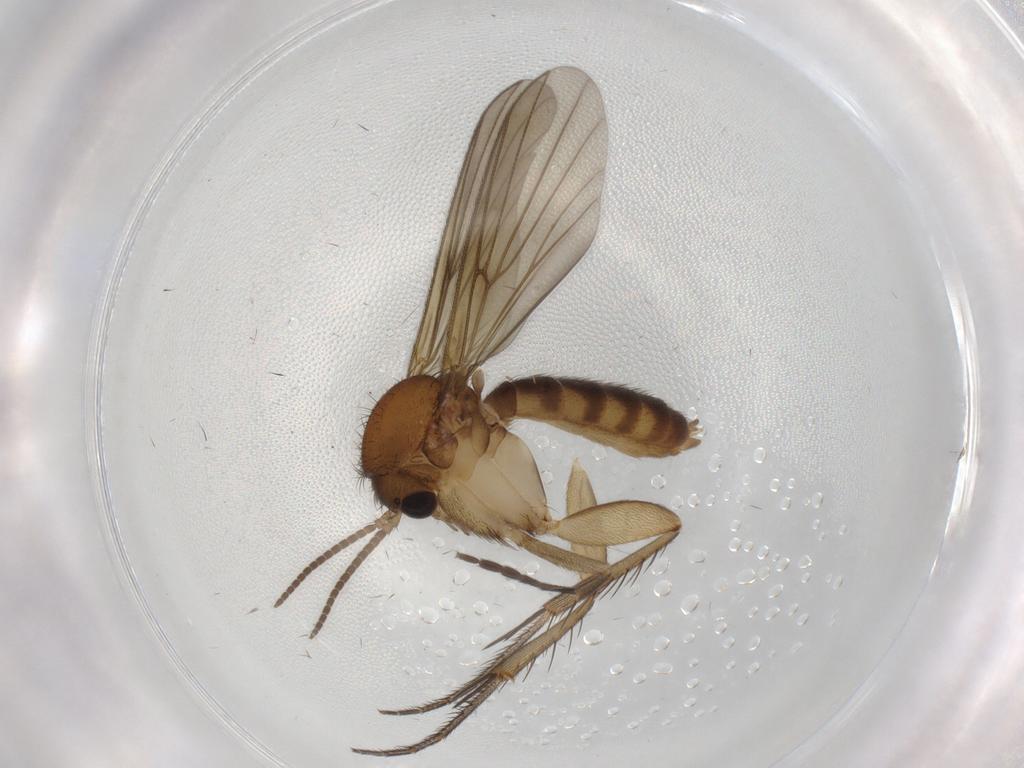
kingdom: Animalia
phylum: Arthropoda
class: Insecta
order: Diptera
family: Mycetophilidae
